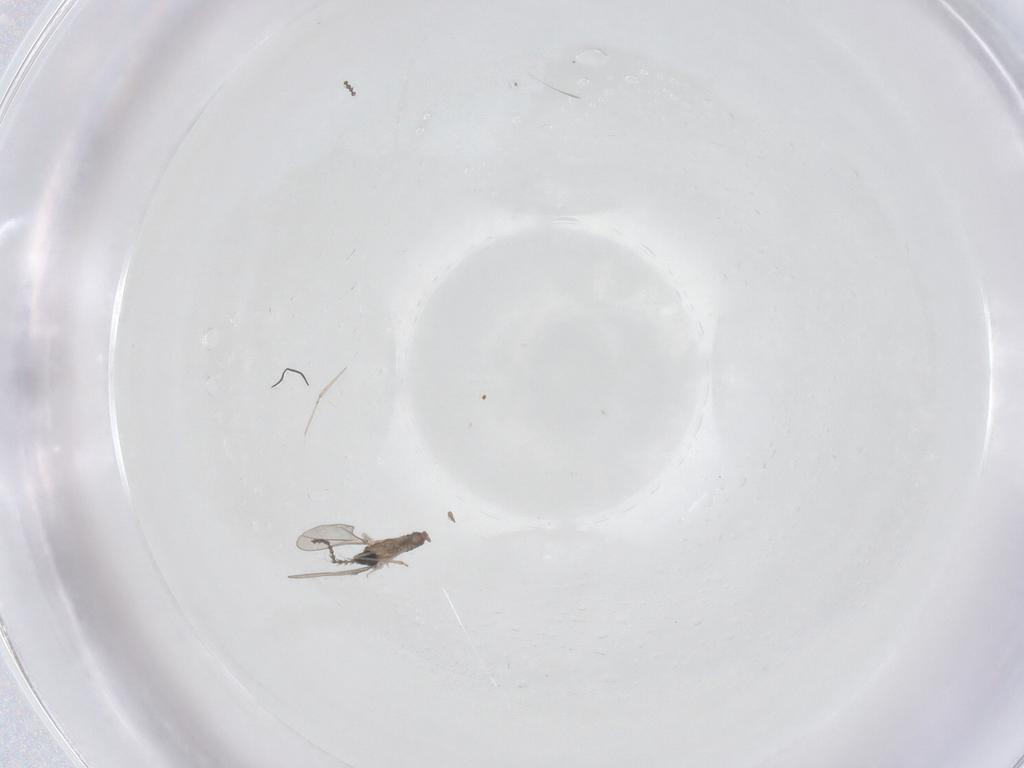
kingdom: Animalia
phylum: Arthropoda
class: Insecta
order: Diptera
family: Cecidomyiidae
